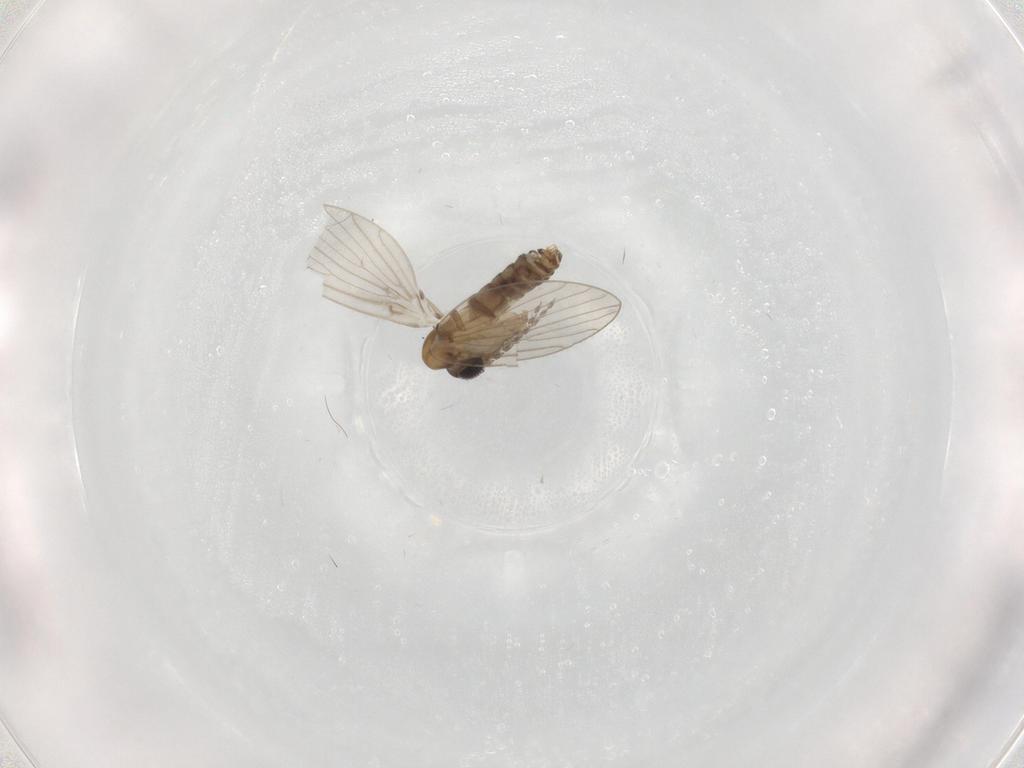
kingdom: Animalia
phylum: Arthropoda
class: Insecta
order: Diptera
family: Psychodidae
